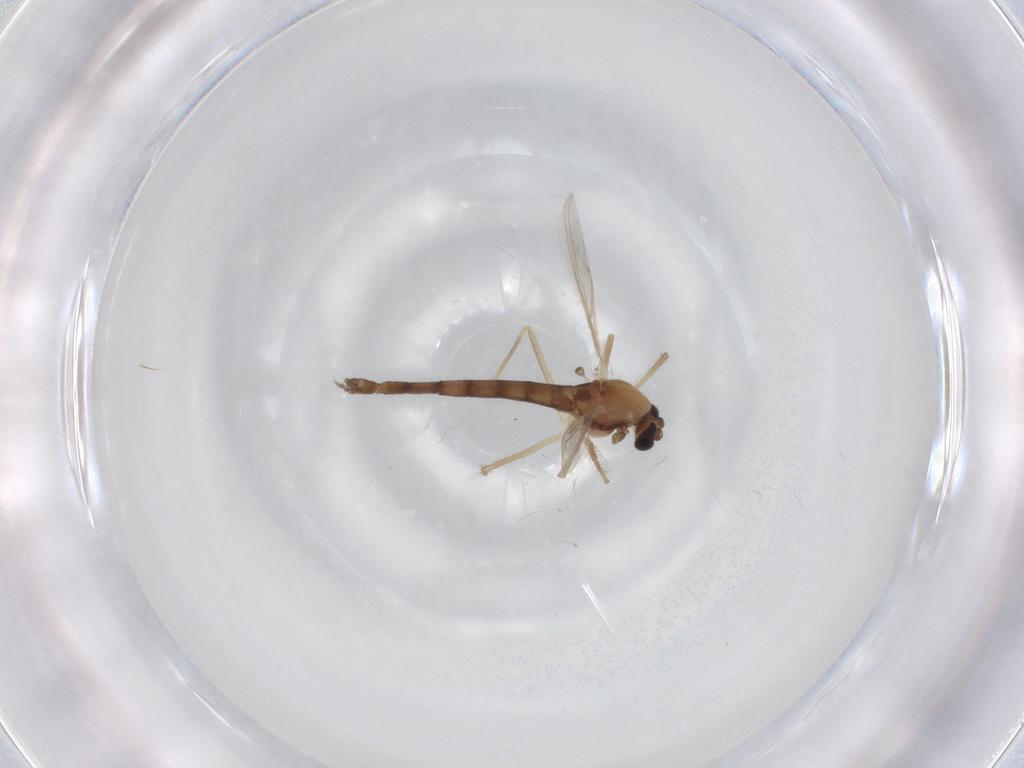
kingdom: Animalia
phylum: Arthropoda
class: Insecta
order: Diptera
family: Chironomidae
